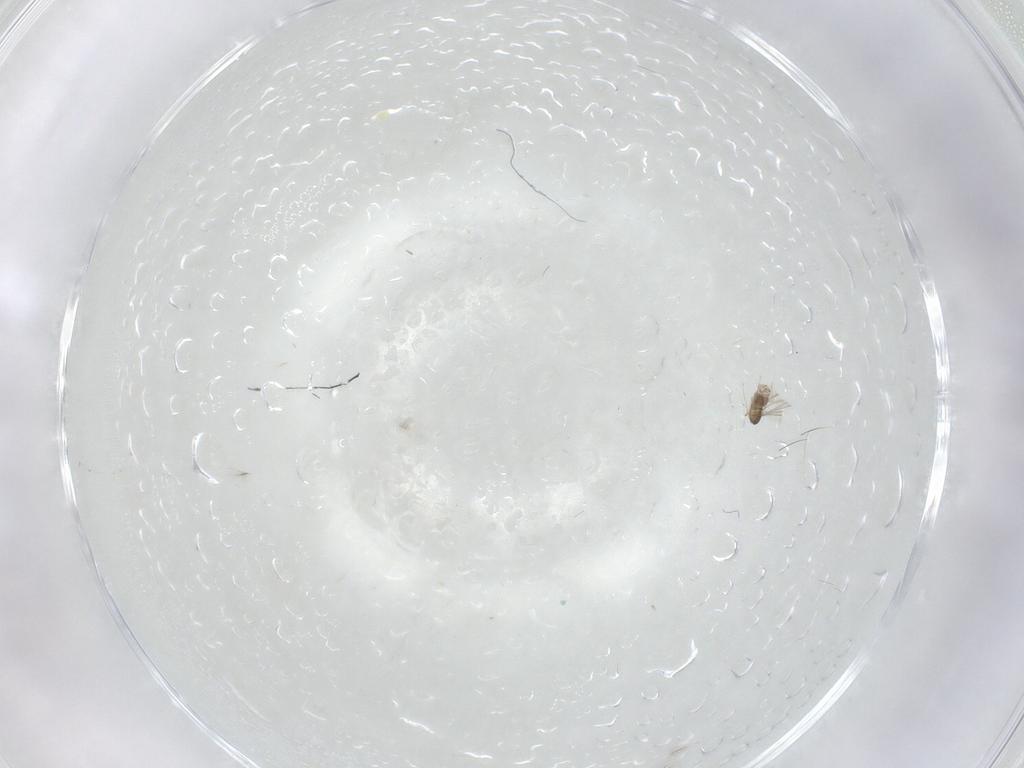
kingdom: Animalia
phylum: Arthropoda
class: Insecta
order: Hymenoptera
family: Mymaridae
